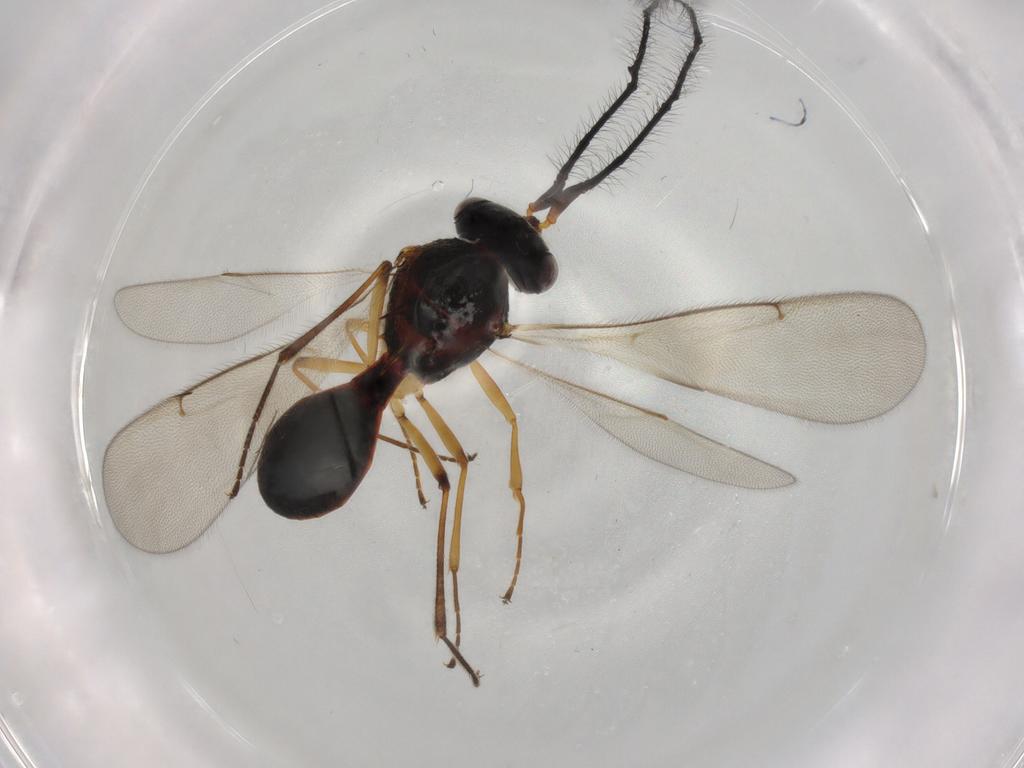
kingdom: Animalia
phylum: Arthropoda
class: Insecta
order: Hymenoptera
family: Scelionidae
